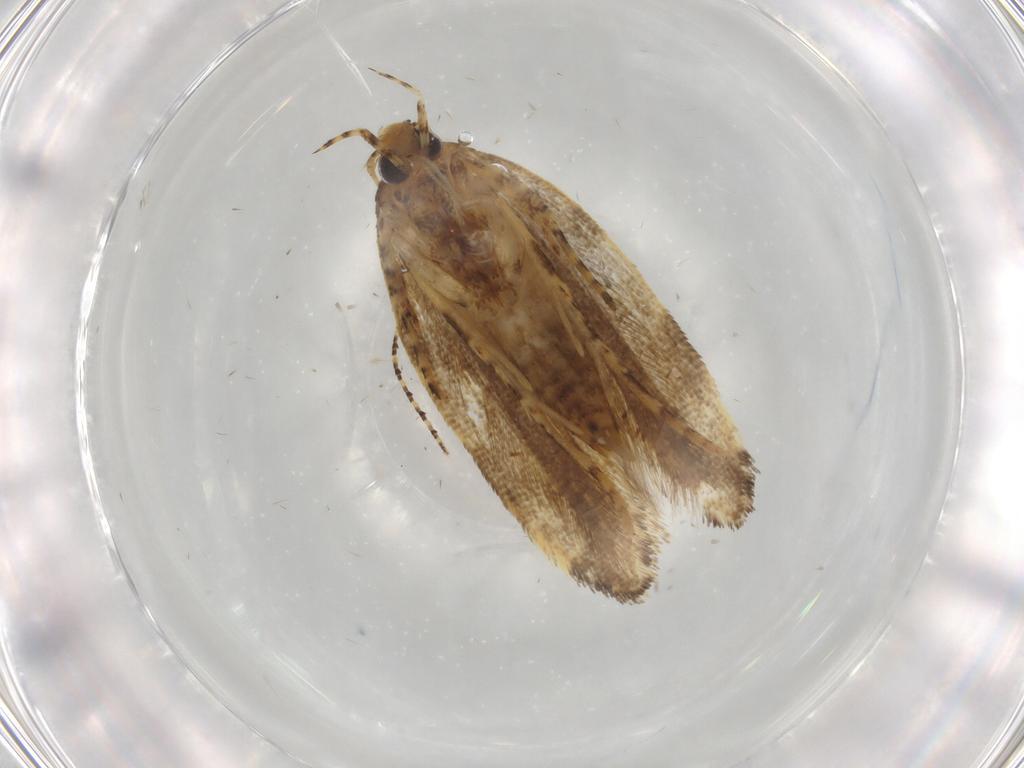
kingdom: Animalia
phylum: Arthropoda
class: Insecta
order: Lepidoptera
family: Gelechiidae
